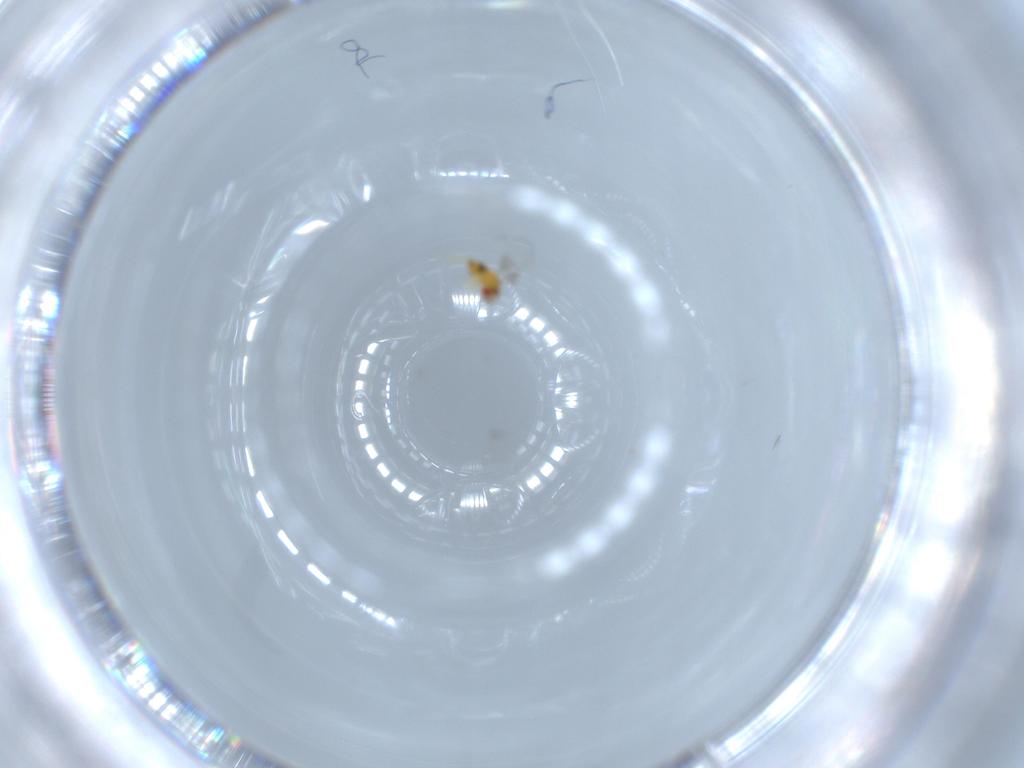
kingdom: Animalia
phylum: Arthropoda
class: Insecta
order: Hymenoptera
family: Trichogrammatidae
